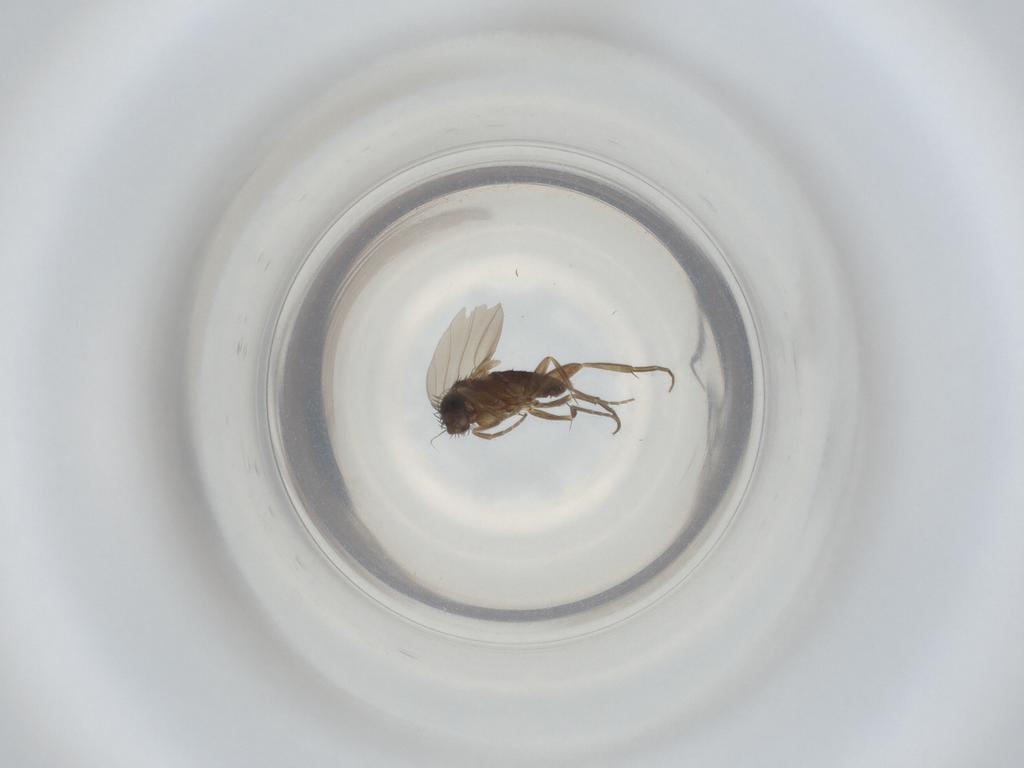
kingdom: Animalia
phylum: Arthropoda
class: Insecta
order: Diptera
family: Phoridae
